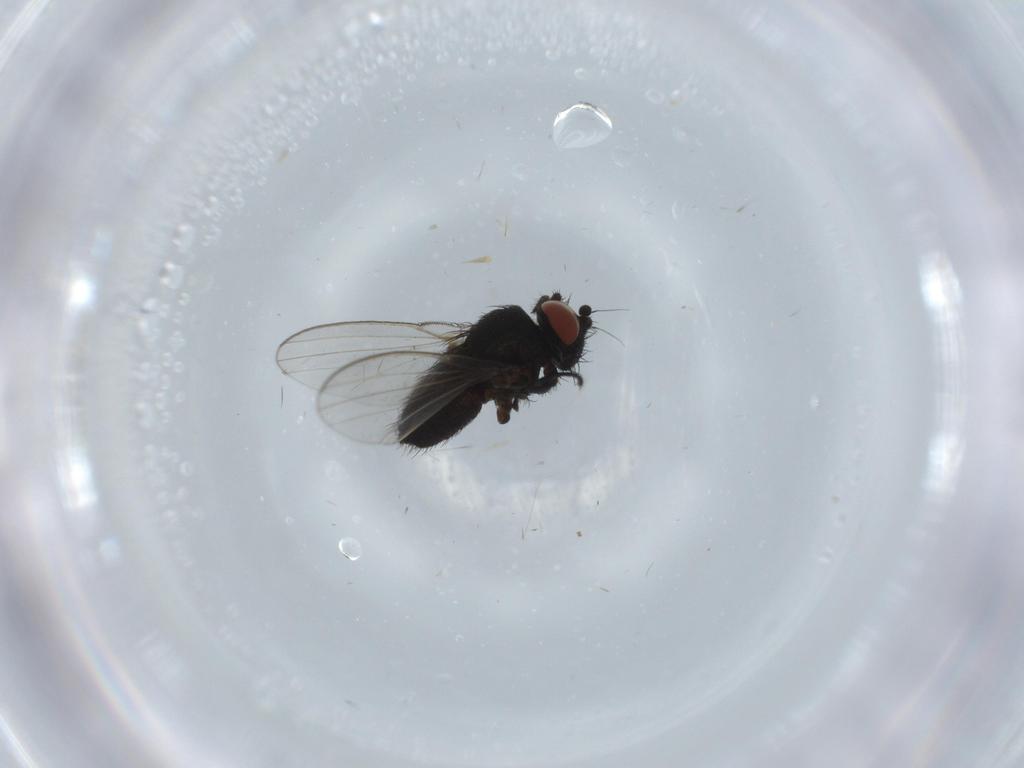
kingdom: Animalia
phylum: Arthropoda
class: Insecta
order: Diptera
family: Milichiidae
